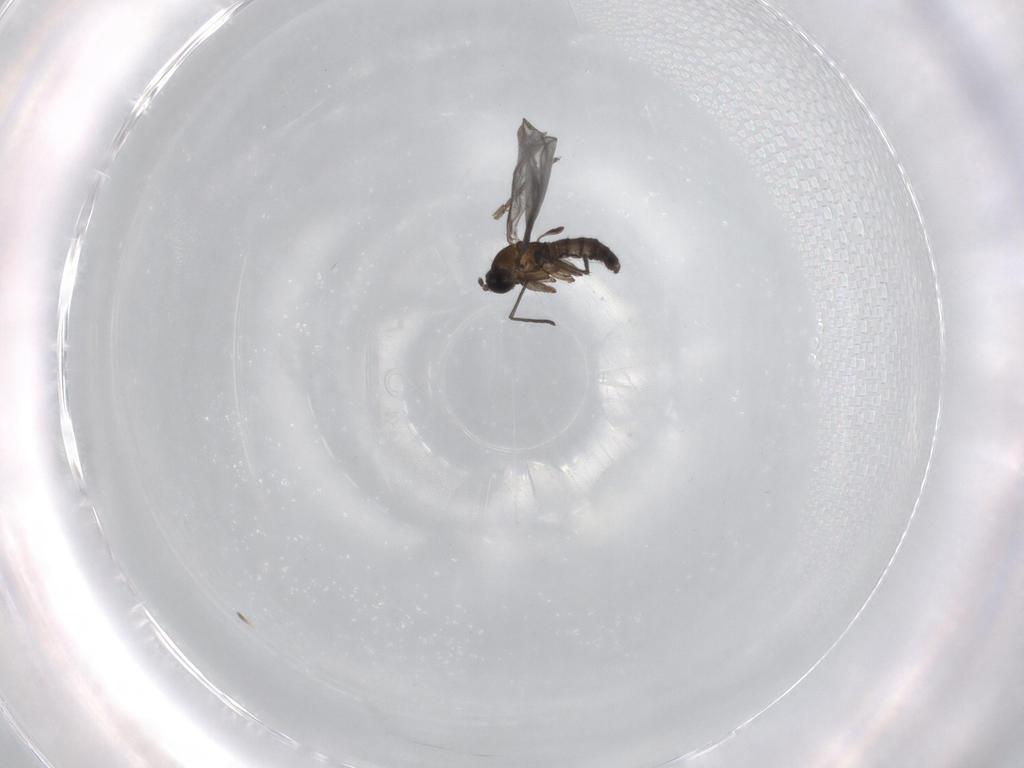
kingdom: Animalia
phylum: Arthropoda
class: Insecta
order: Diptera
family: Sciaridae
